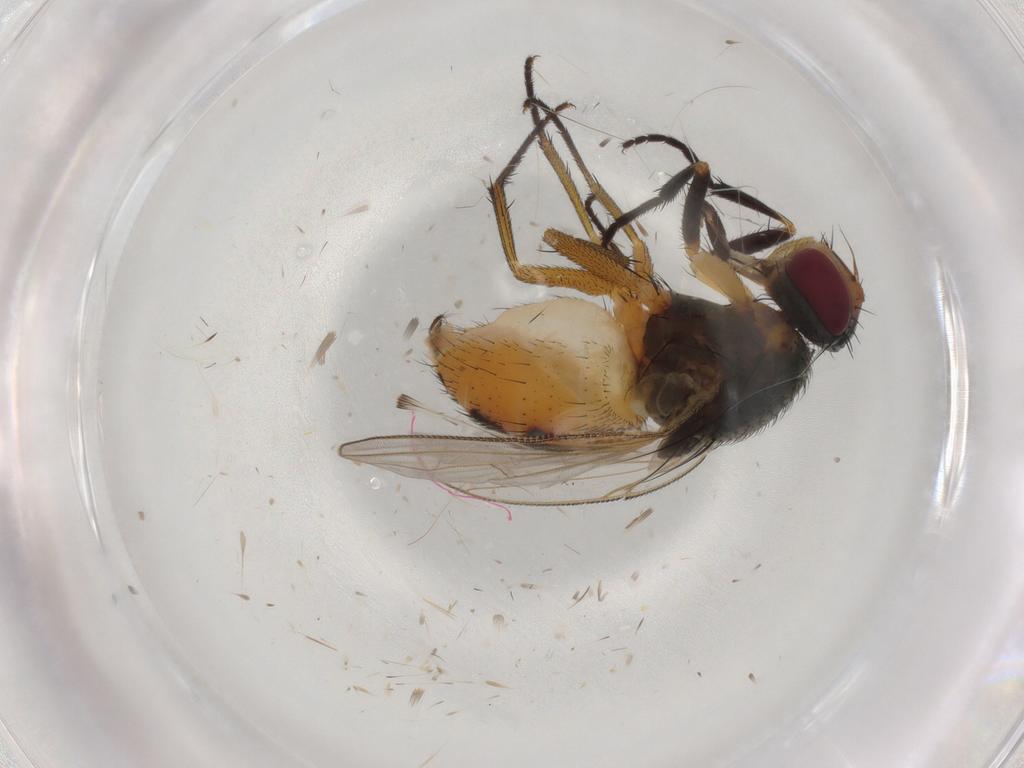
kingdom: Animalia
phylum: Arthropoda
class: Insecta
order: Diptera
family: Muscidae
